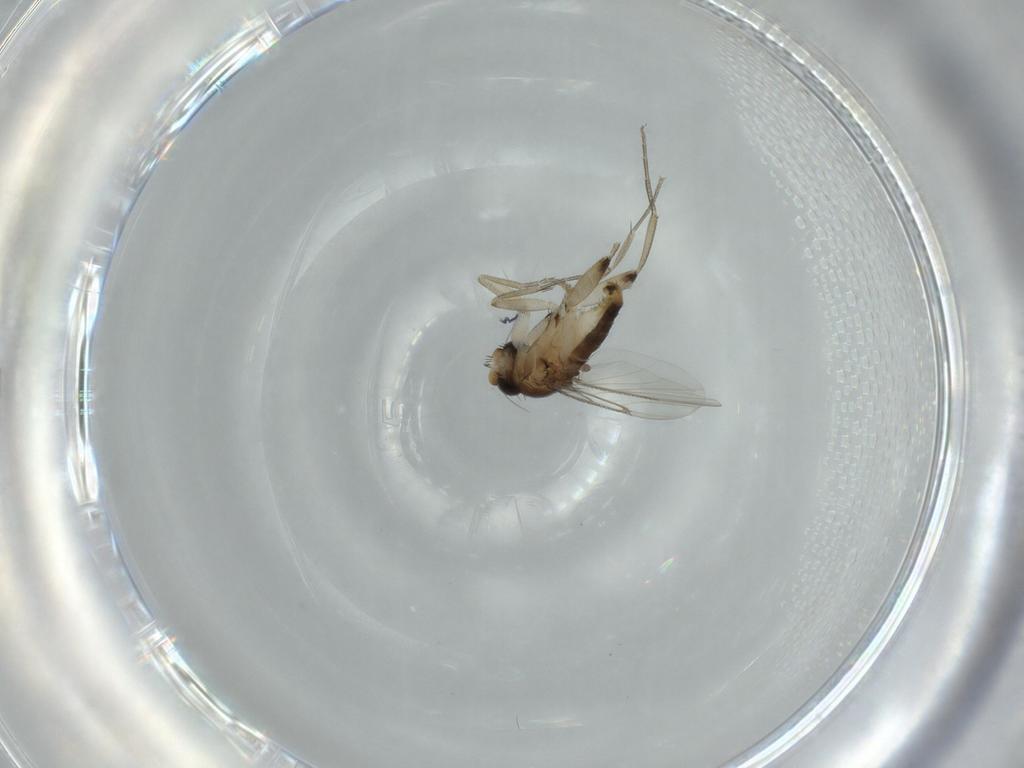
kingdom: Animalia
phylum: Arthropoda
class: Insecta
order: Diptera
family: Phoridae
